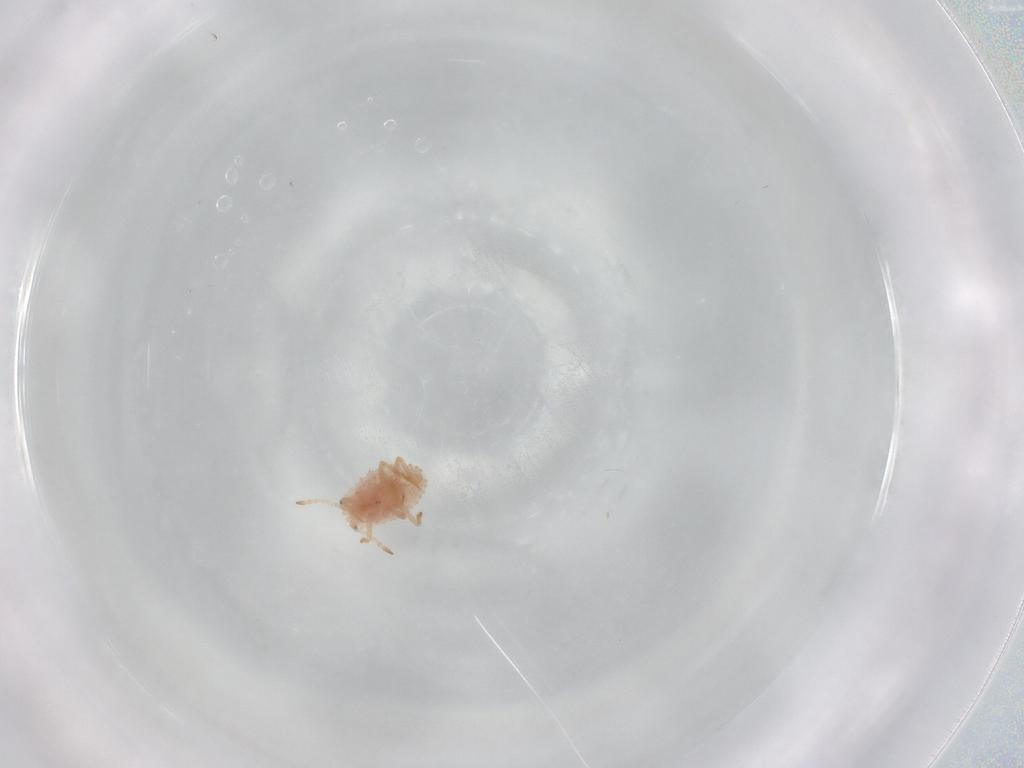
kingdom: Animalia
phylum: Arthropoda
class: Insecta
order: Hemiptera
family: Coccoidea_incertae_sedis
